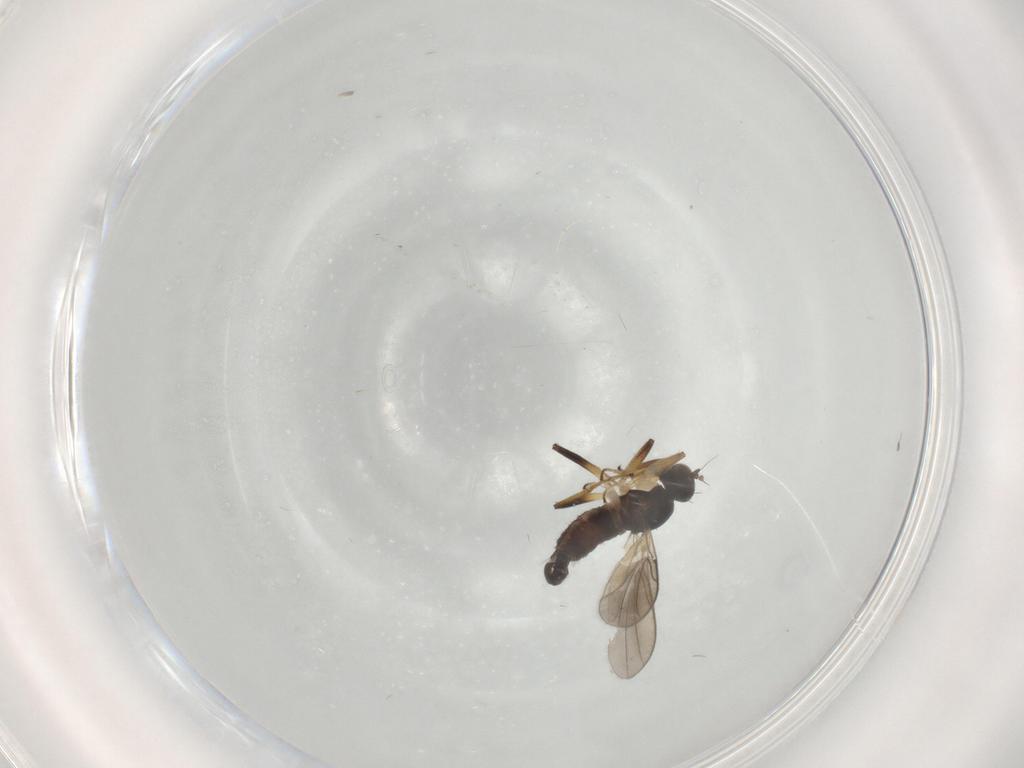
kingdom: Animalia
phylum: Arthropoda
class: Insecta
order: Diptera
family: Hybotidae
